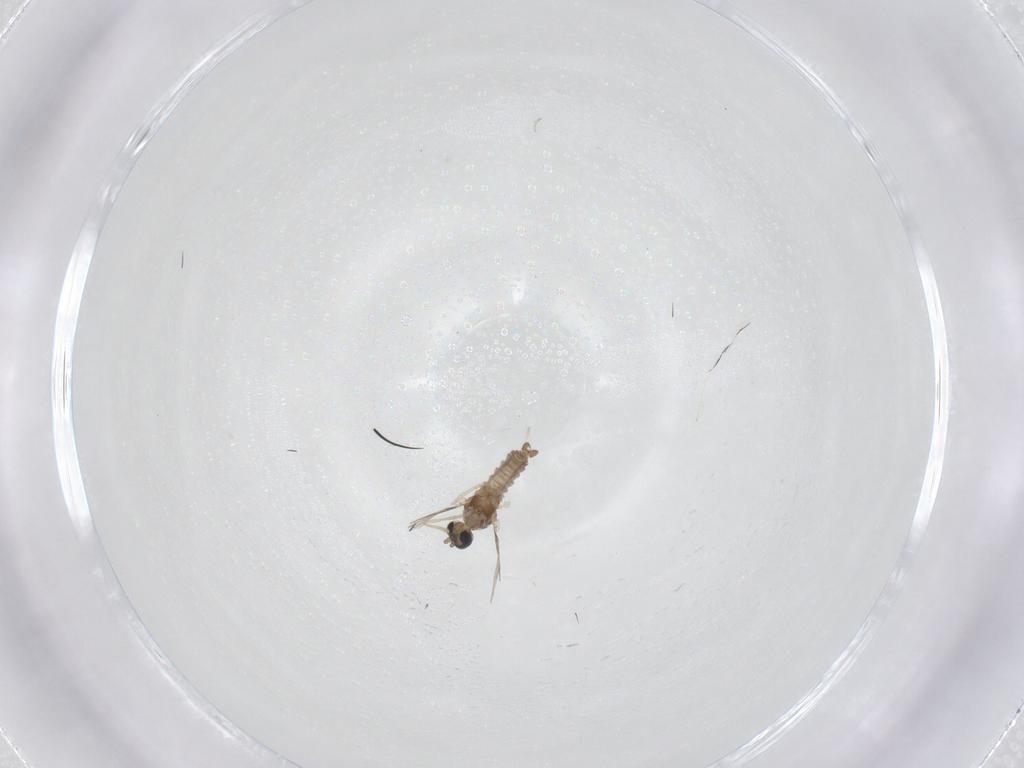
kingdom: Animalia
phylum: Arthropoda
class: Insecta
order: Diptera
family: Cecidomyiidae
